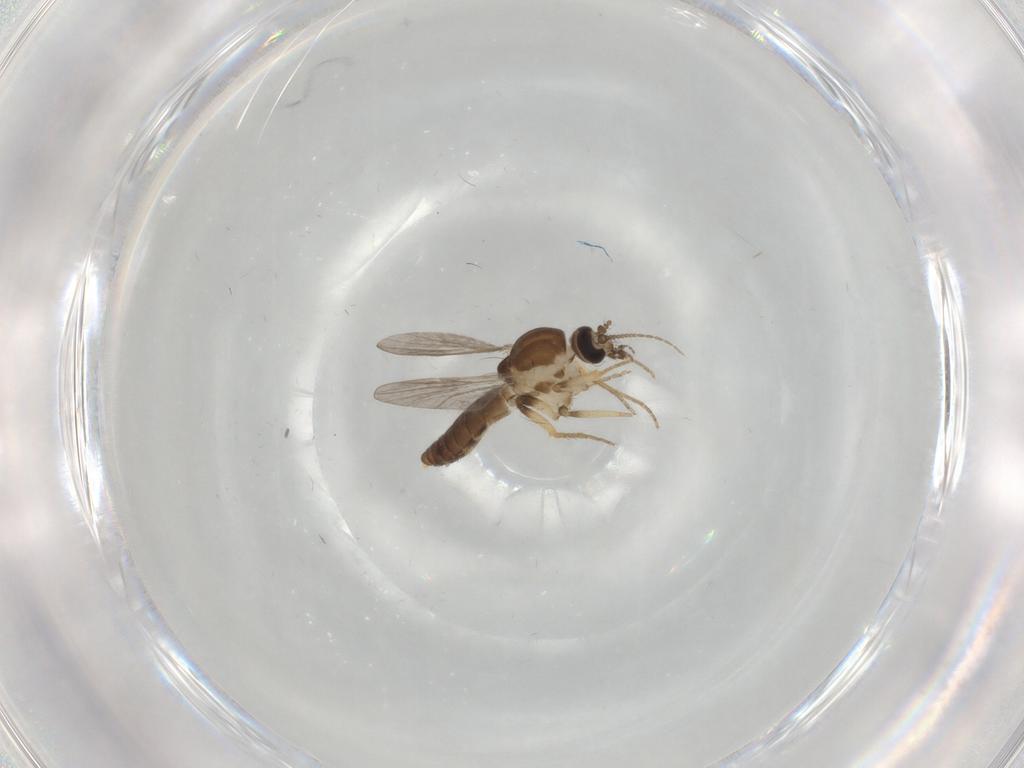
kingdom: Animalia
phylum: Arthropoda
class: Insecta
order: Diptera
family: Ceratopogonidae
